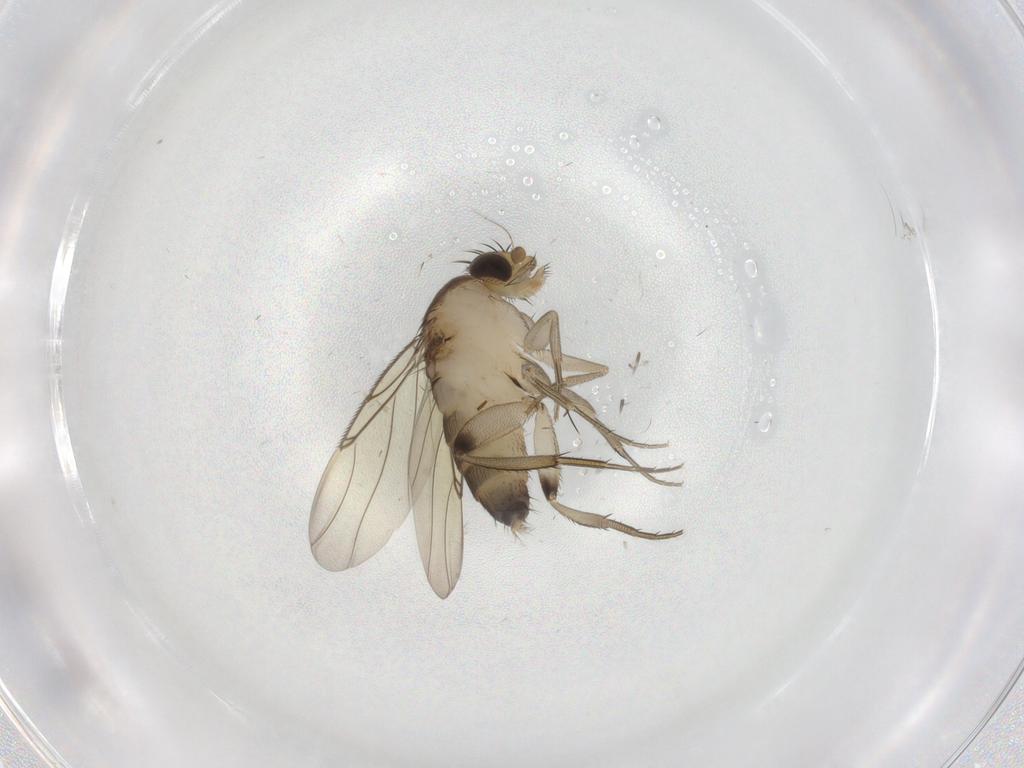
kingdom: Animalia
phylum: Arthropoda
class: Insecta
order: Diptera
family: Phoridae
